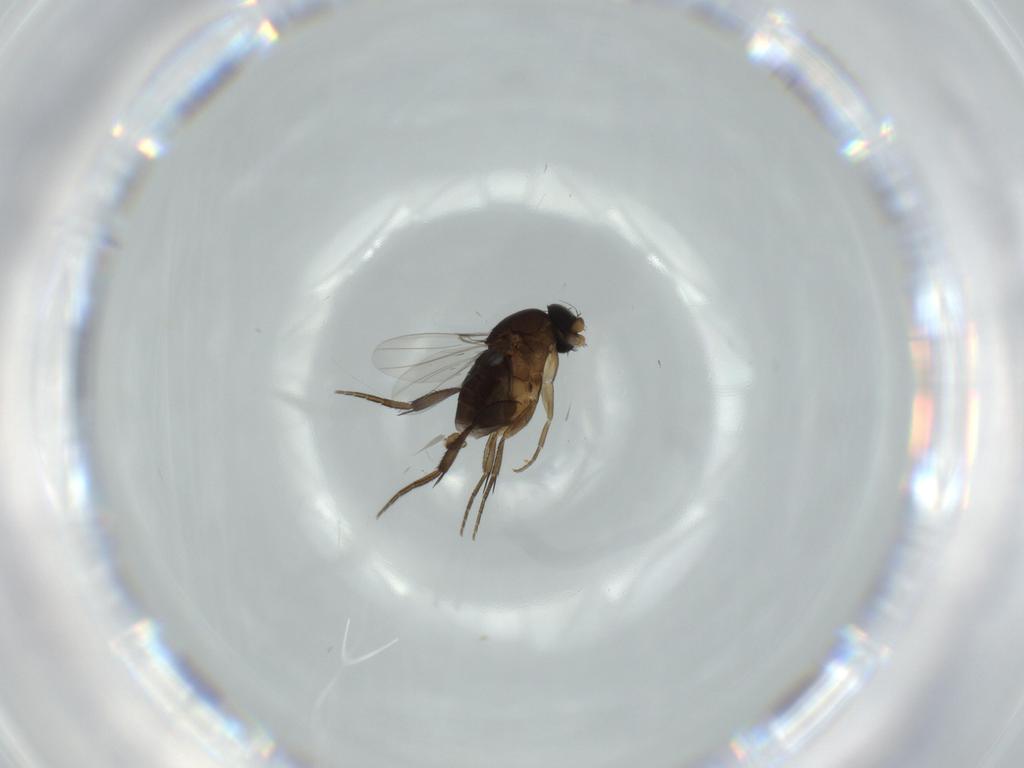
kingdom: Animalia
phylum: Arthropoda
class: Insecta
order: Diptera
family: Phoridae
